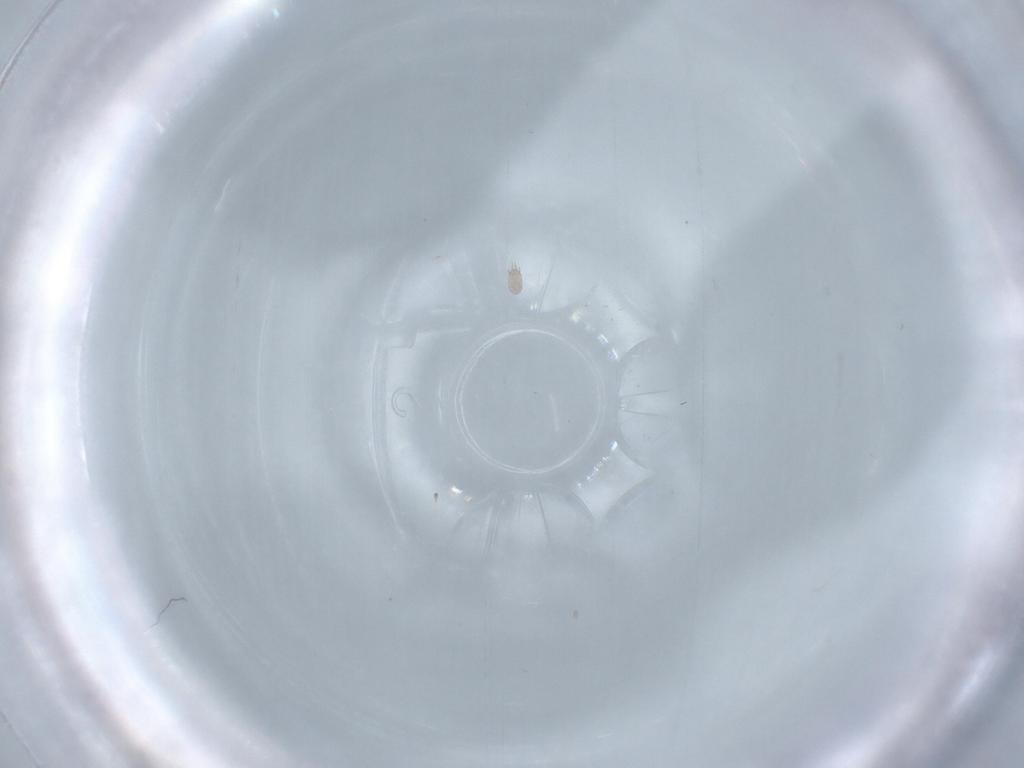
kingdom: Animalia
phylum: Arthropoda
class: Arachnida
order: Sarcoptiformes
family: Acaridae
